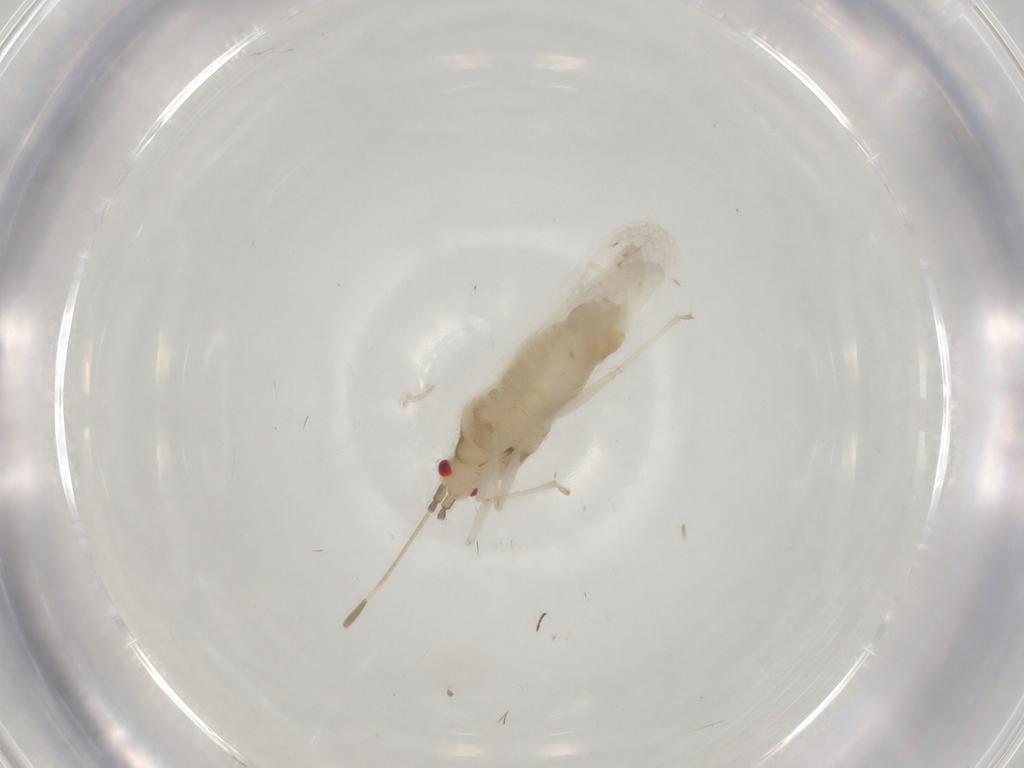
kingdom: Animalia
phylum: Arthropoda
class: Insecta
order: Hemiptera
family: Tingidae
